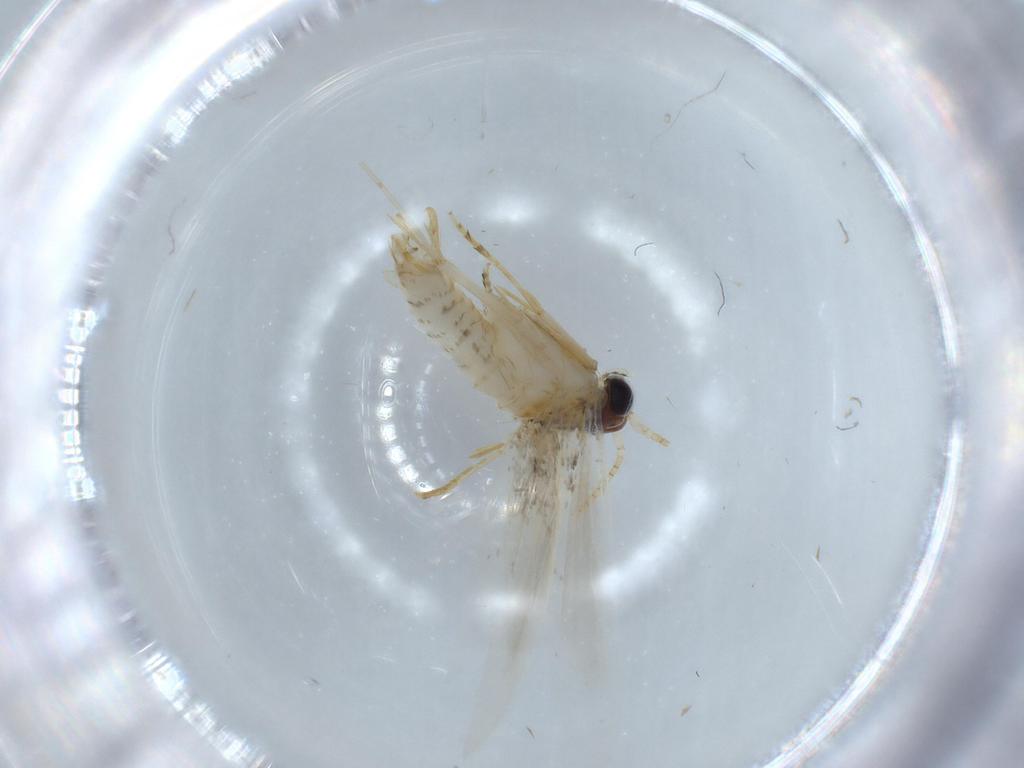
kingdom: Animalia
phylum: Arthropoda
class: Insecta
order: Lepidoptera
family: Tineidae
